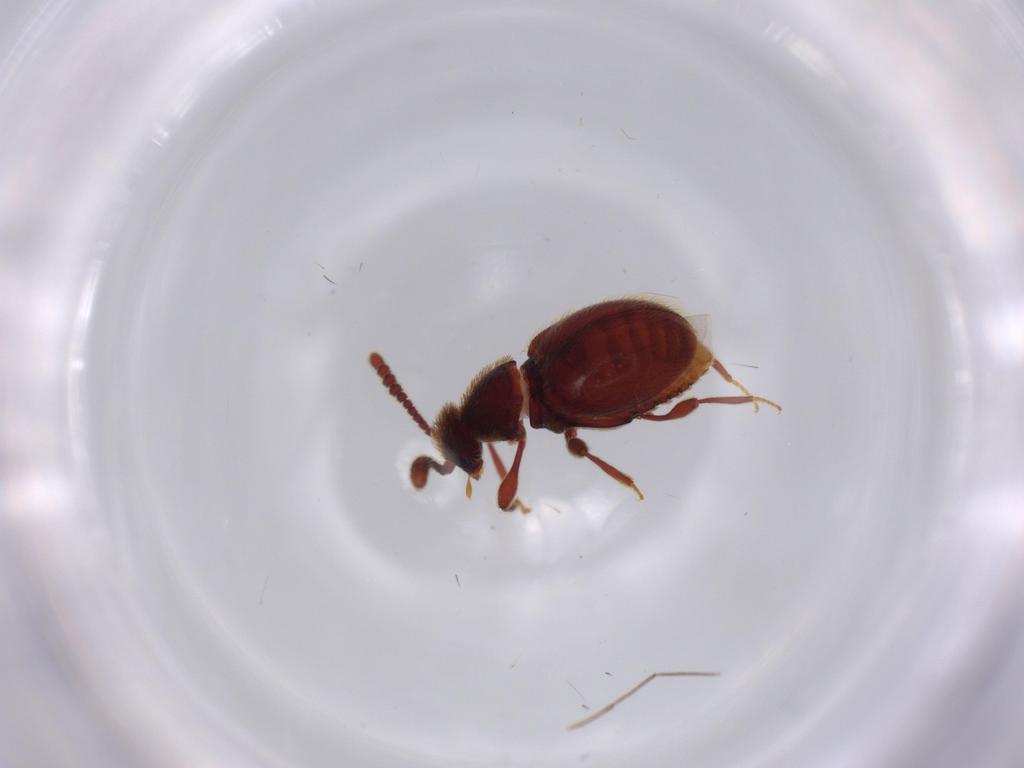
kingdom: Animalia
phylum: Arthropoda
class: Insecta
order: Coleoptera
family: Staphylinidae
